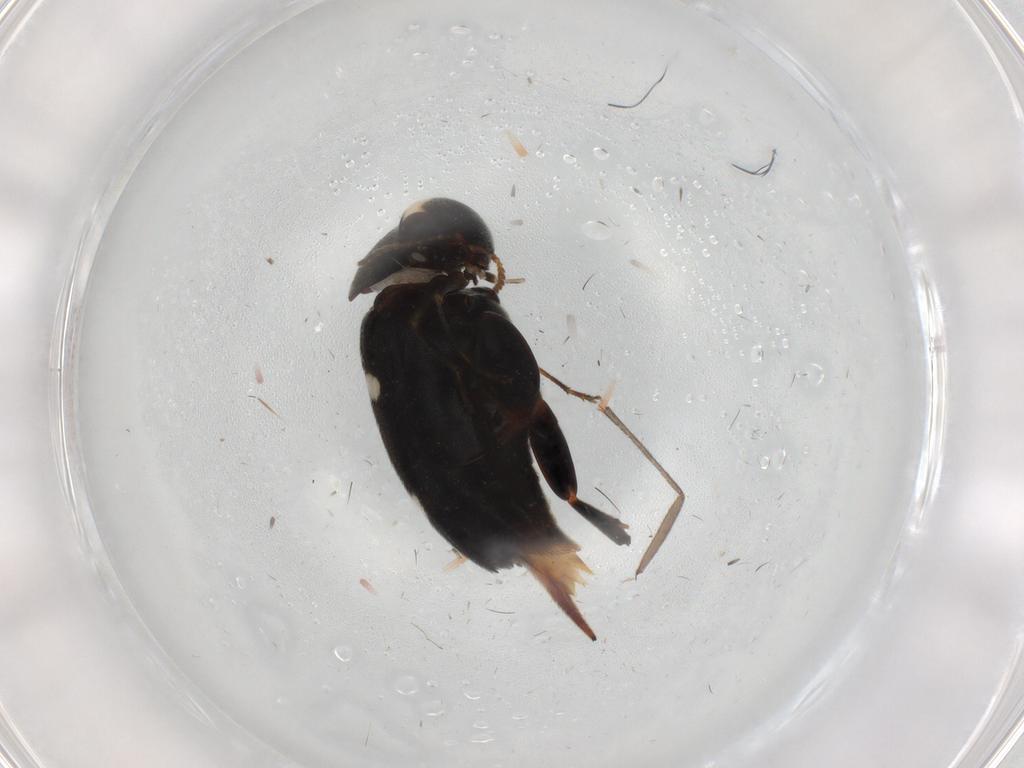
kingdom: Animalia
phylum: Arthropoda
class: Insecta
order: Coleoptera
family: Mordellidae
